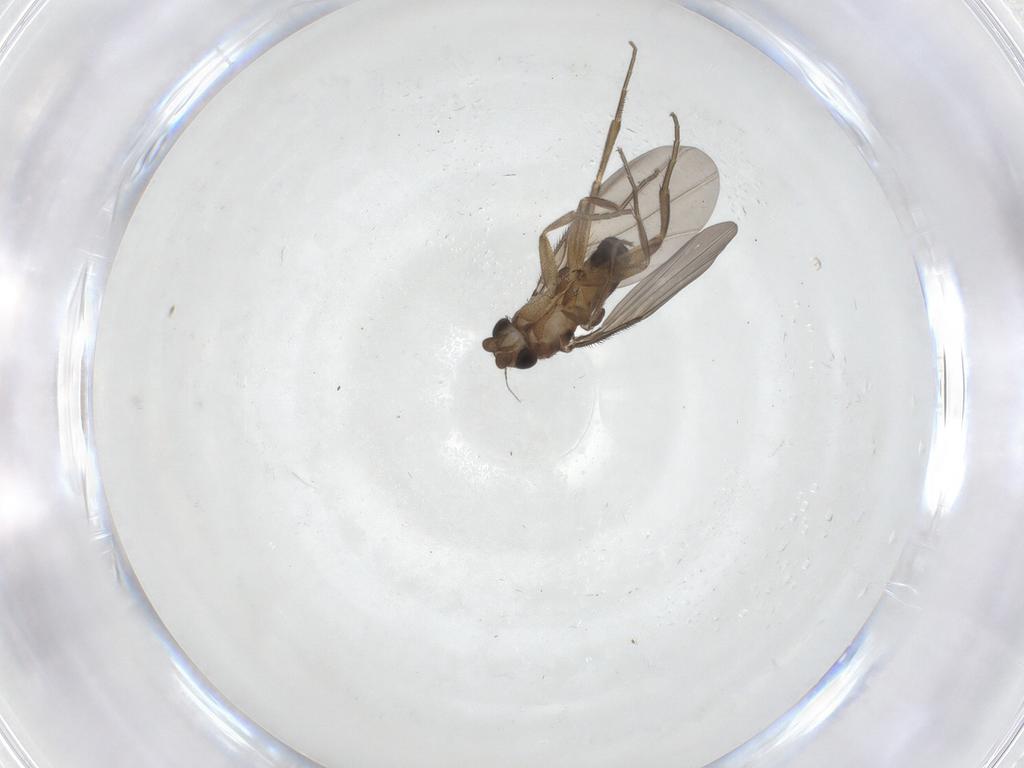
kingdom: Animalia
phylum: Arthropoda
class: Insecta
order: Diptera
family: Phoridae
